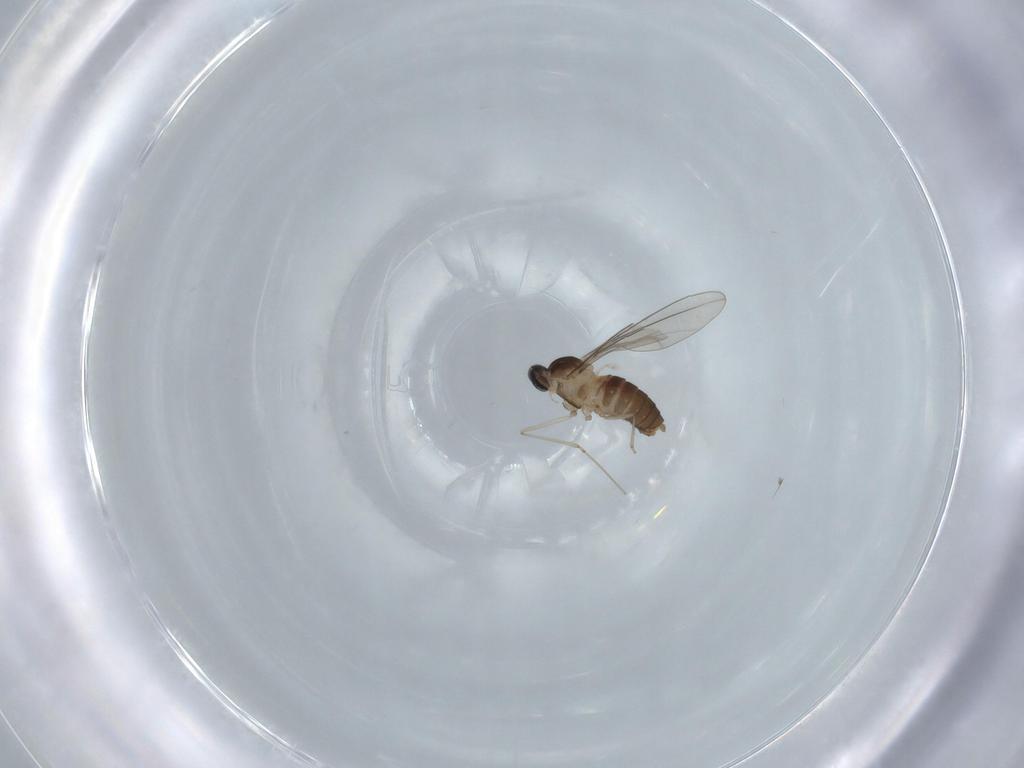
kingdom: Animalia
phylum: Arthropoda
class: Insecta
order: Diptera
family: Cecidomyiidae
